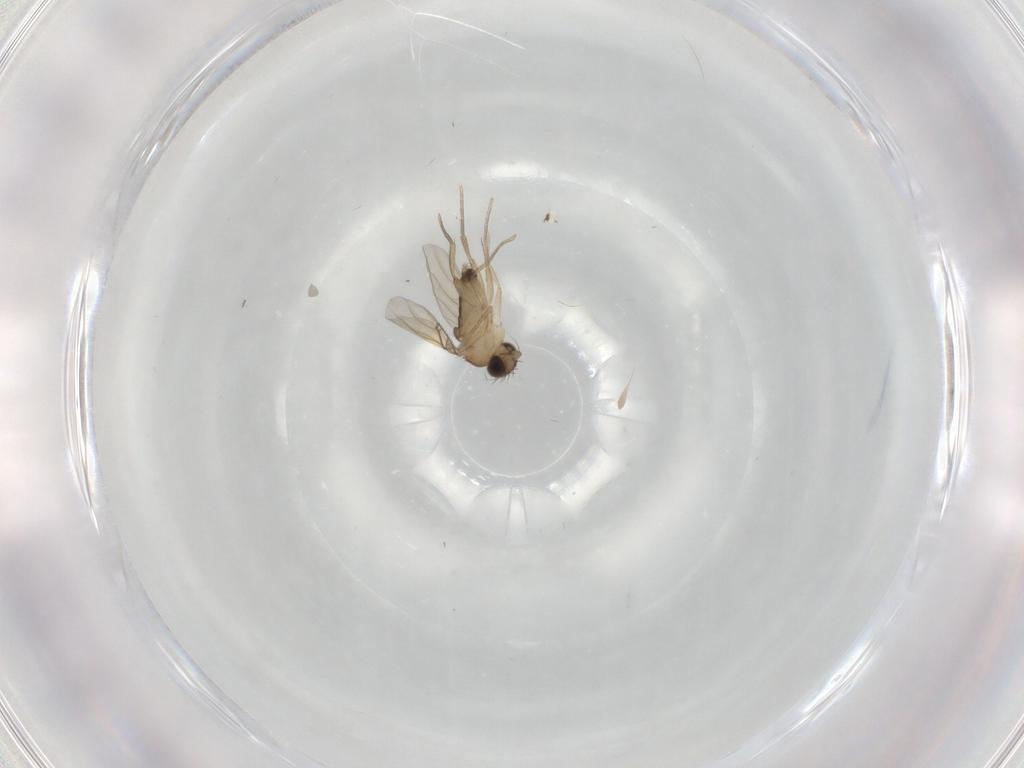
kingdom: Animalia
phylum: Arthropoda
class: Insecta
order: Diptera
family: Phoridae
